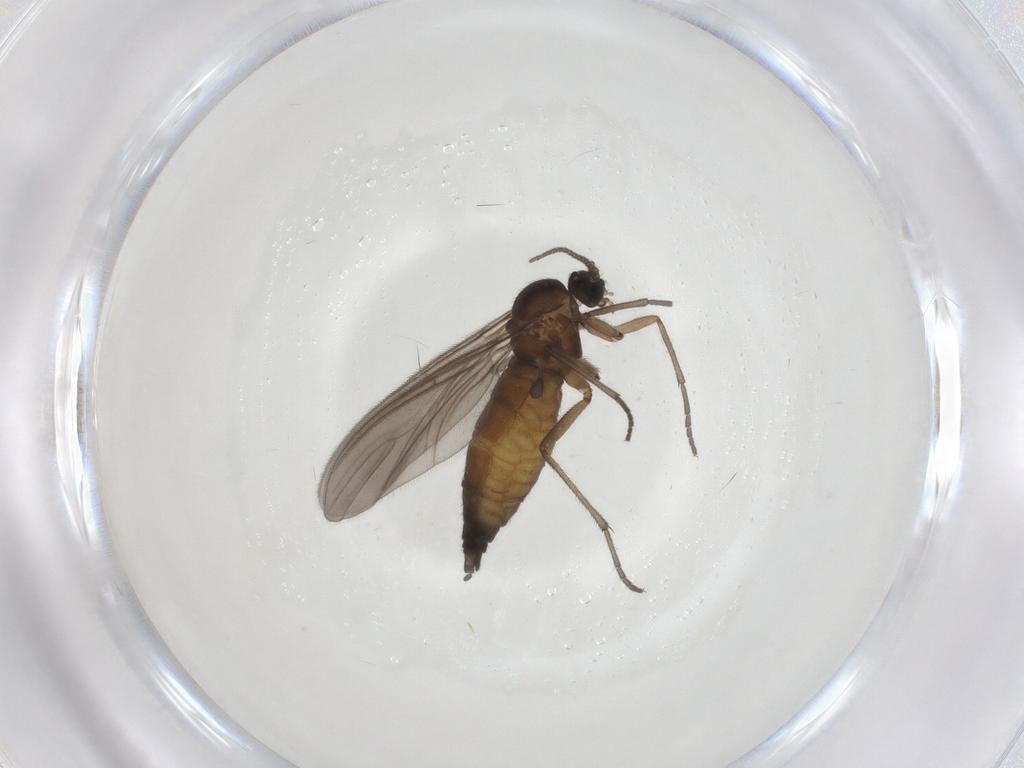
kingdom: Animalia
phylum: Arthropoda
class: Insecta
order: Diptera
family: Sciaridae
